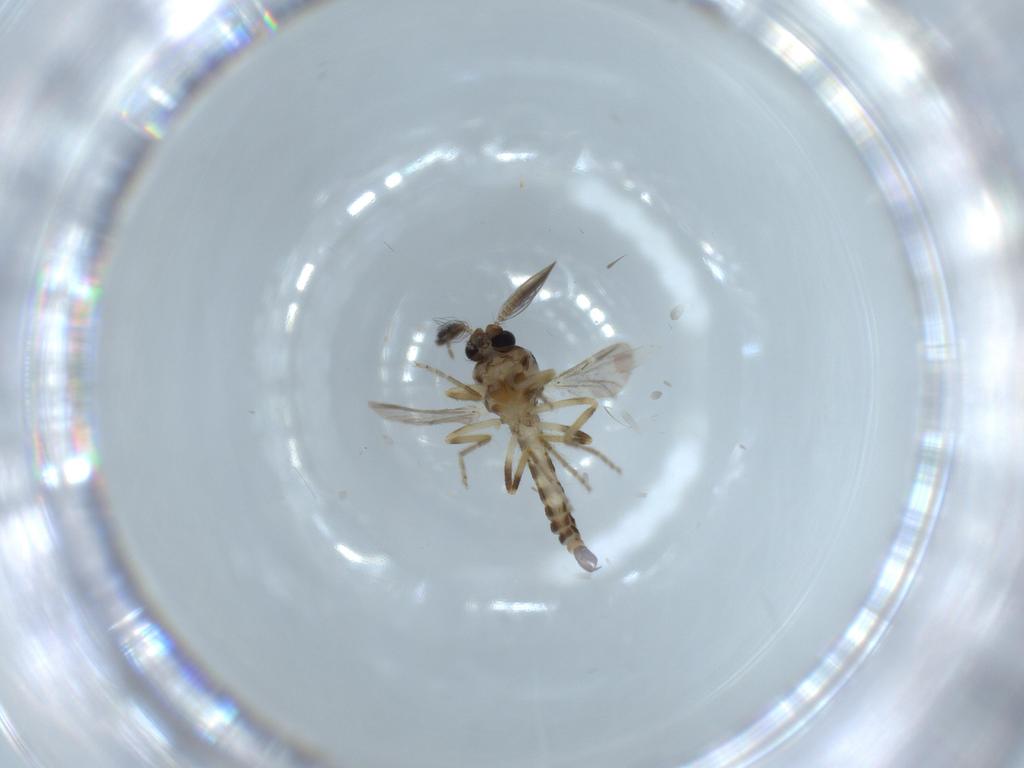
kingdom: Animalia
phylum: Arthropoda
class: Insecta
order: Diptera
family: Ceratopogonidae
